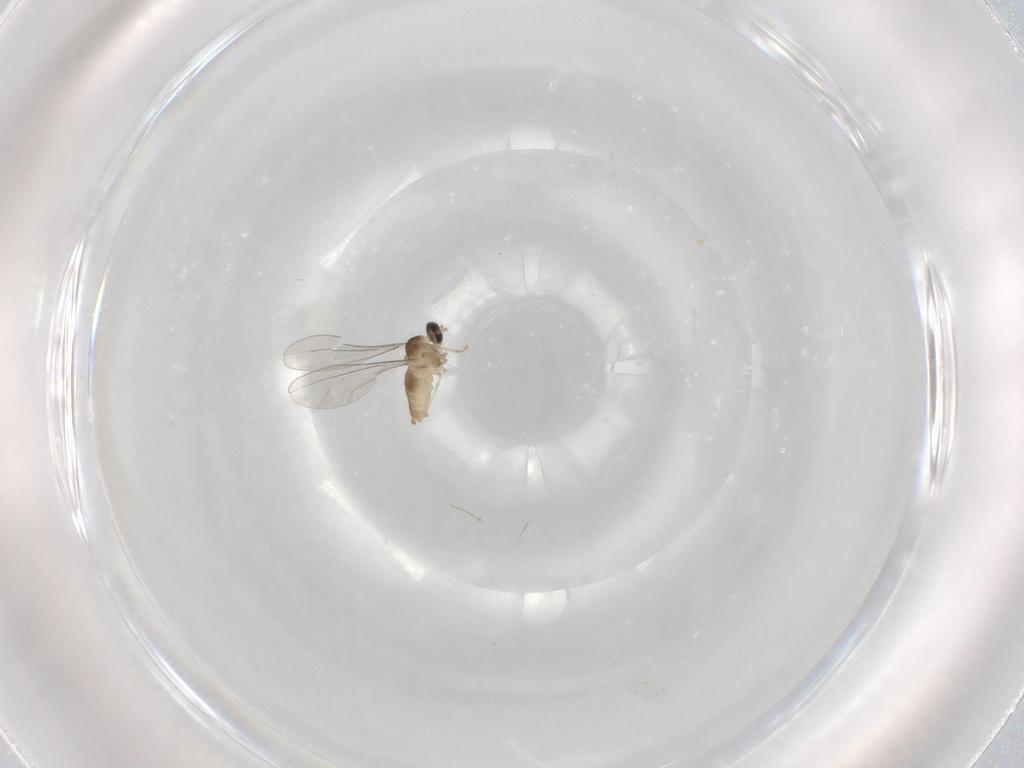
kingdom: Animalia
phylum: Arthropoda
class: Insecta
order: Diptera
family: Cecidomyiidae
